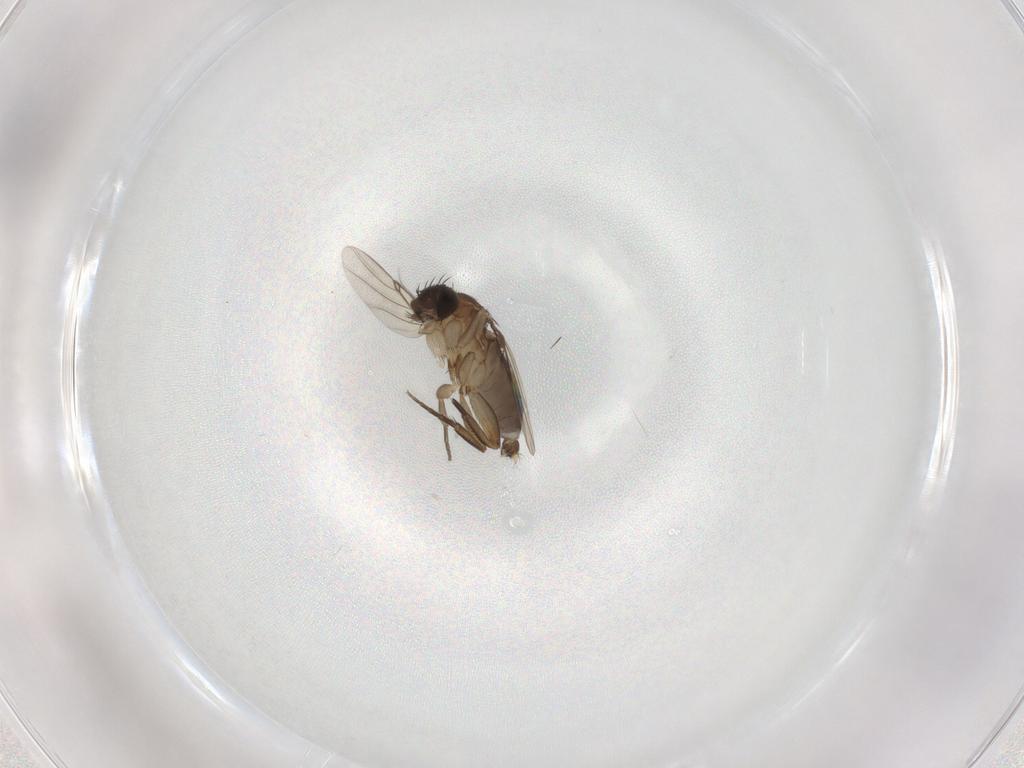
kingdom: Animalia
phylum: Arthropoda
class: Insecta
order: Diptera
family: Phoridae
